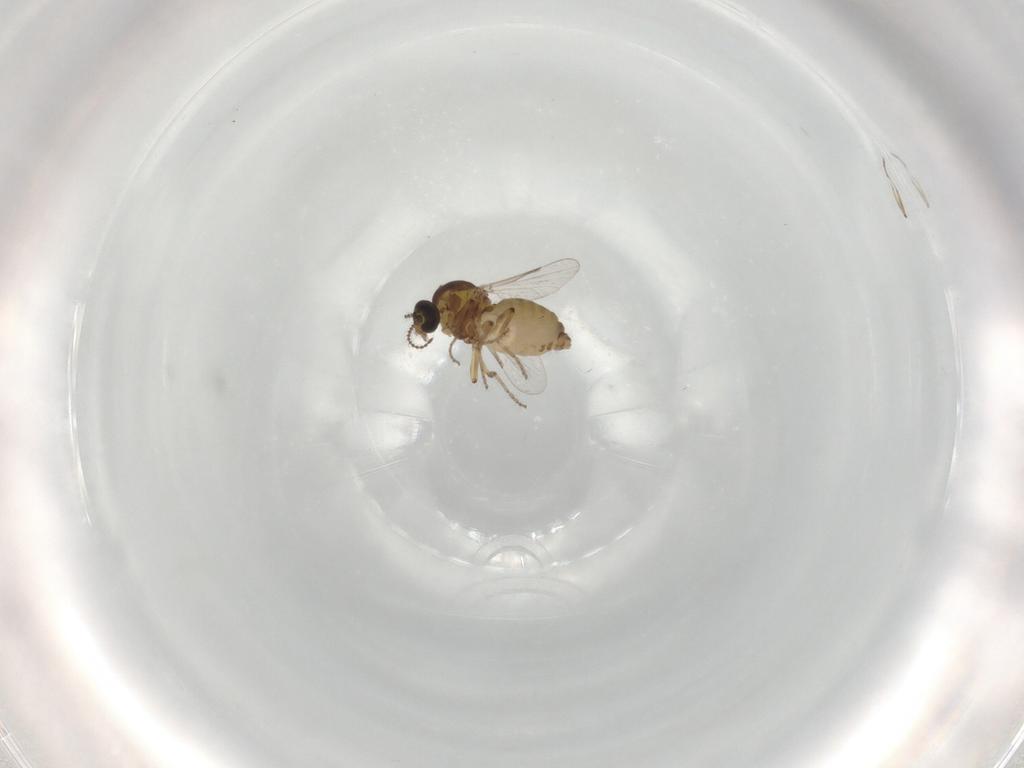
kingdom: Animalia
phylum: Arthropoda
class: Insecta
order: Diptera
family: Ceratopogonidae
